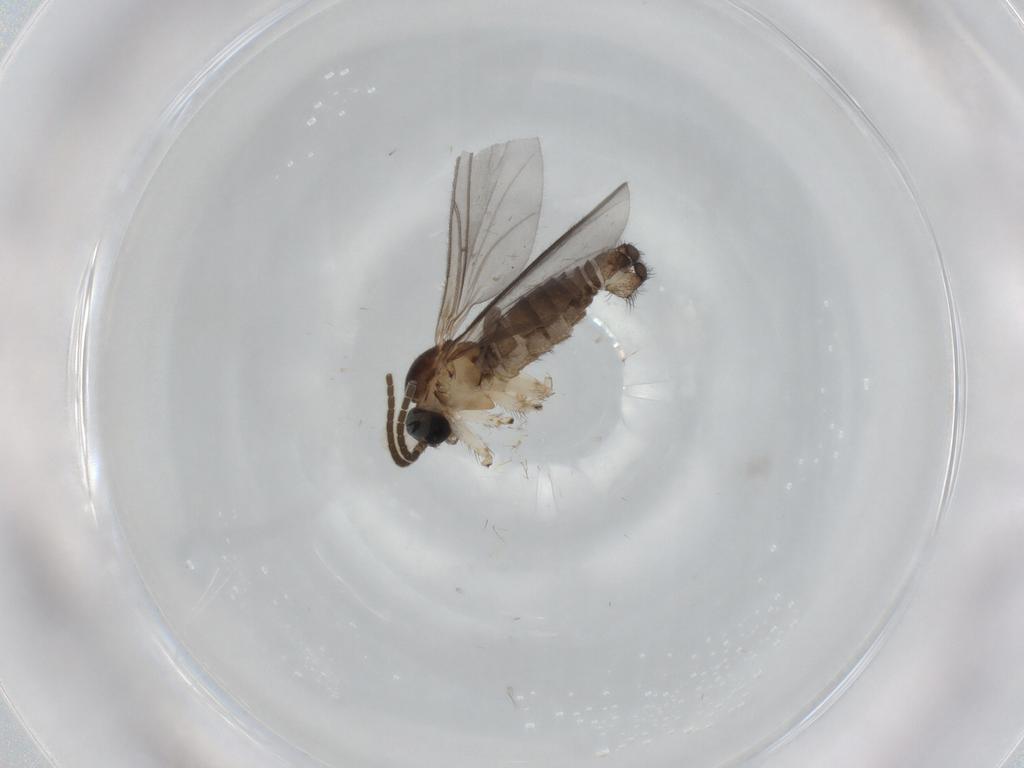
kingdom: Animalia
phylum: Arthropoda
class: Insecta
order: Diptera
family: Sciaridae
